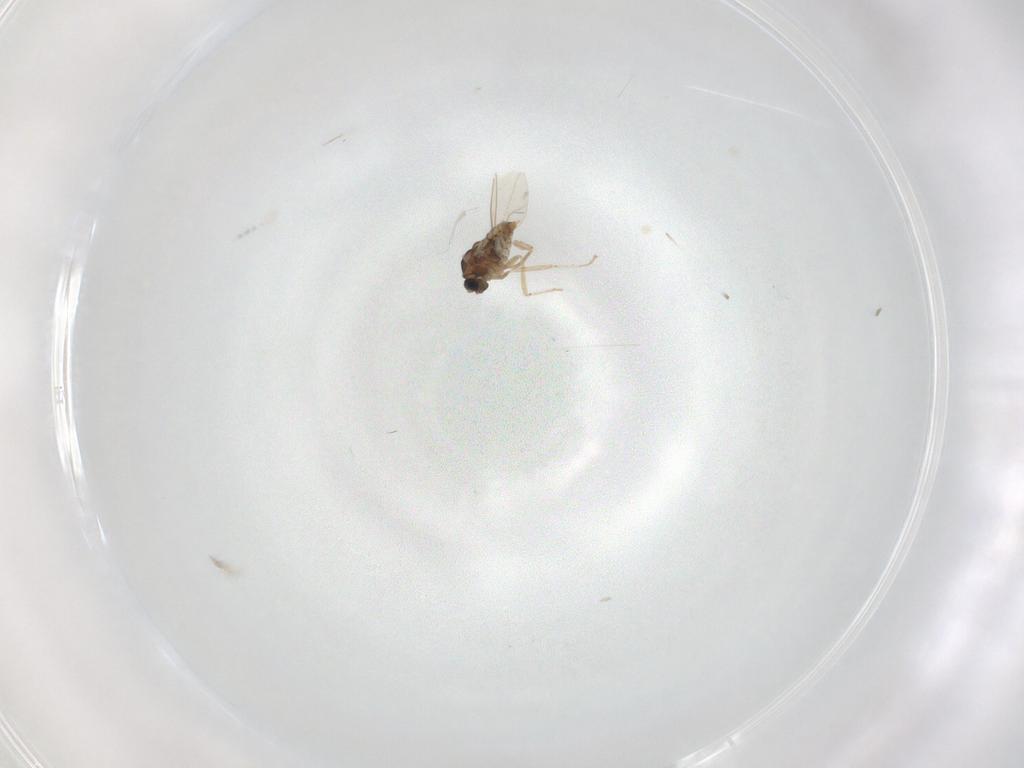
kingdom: Animalia
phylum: Arthropoda
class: Insecta
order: Diptera
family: Cecidomyiidae
